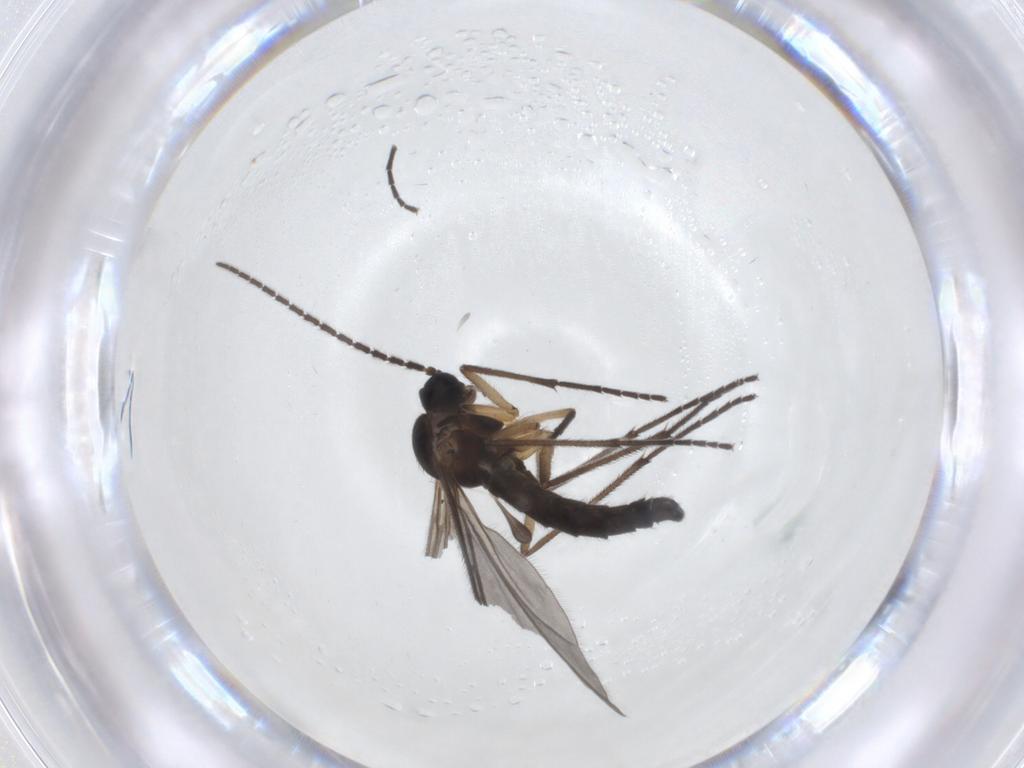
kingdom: Animalia
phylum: Arthropoda
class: Insecta
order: Diptera
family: Sciaridae
